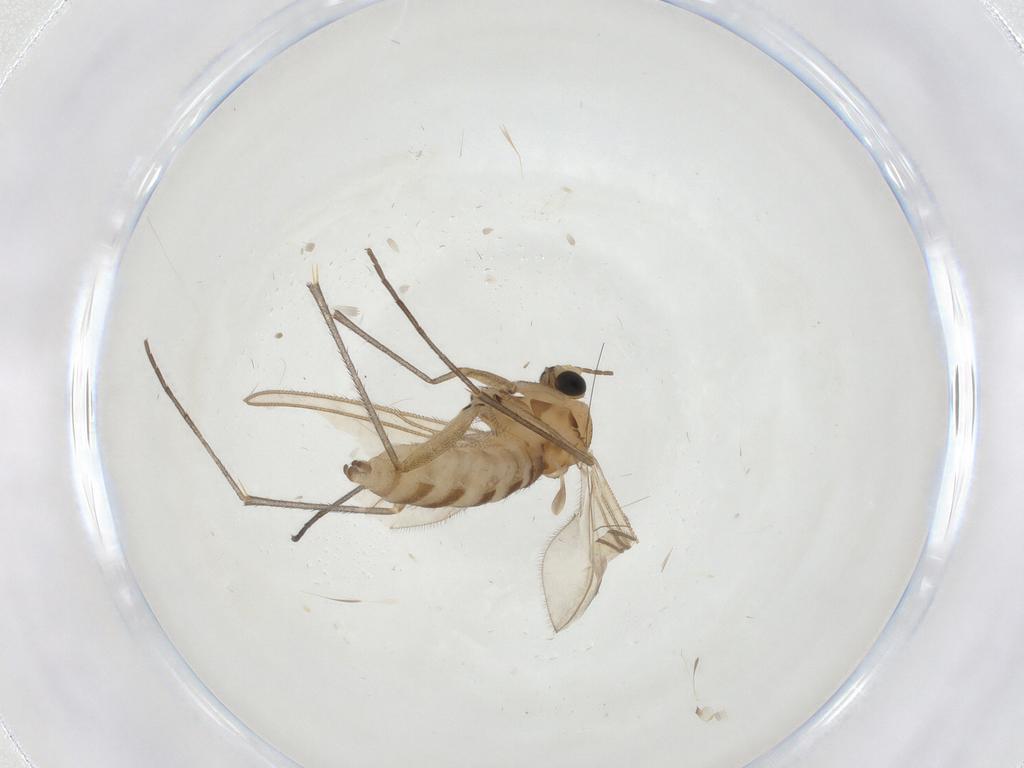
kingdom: Animalia
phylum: Arthropoda
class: Insecta
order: Diptera
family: Sciaridae
